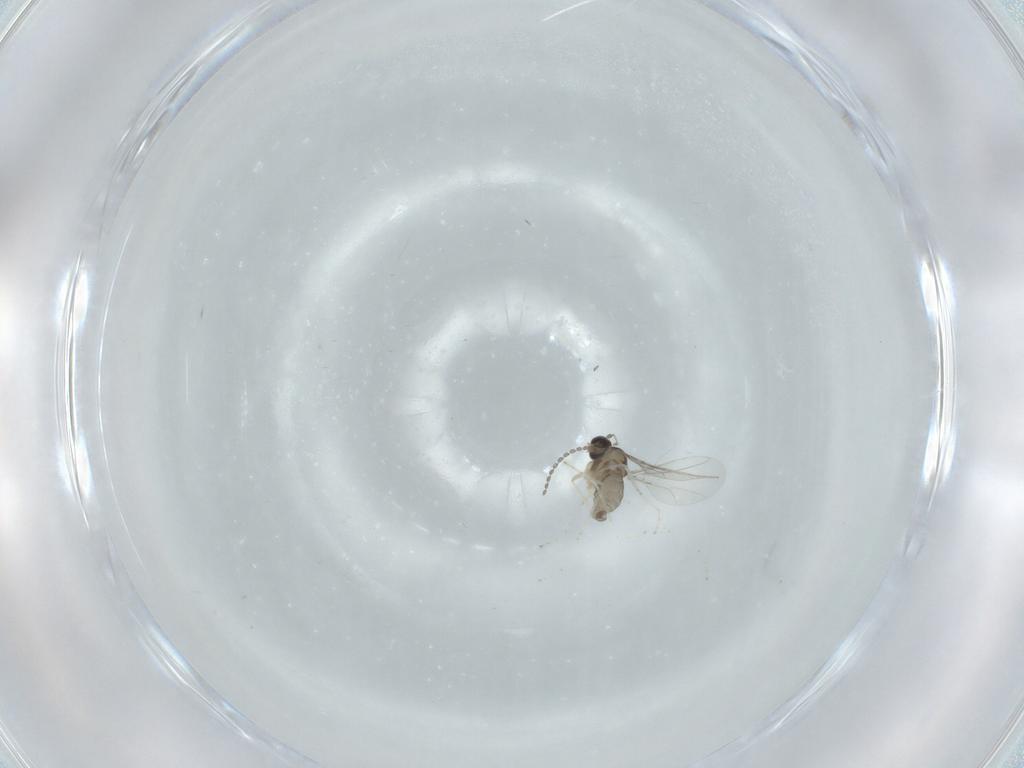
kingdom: Animalia
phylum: Arthropoda
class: Insecta
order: Diptera
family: Cecidomyiidae
